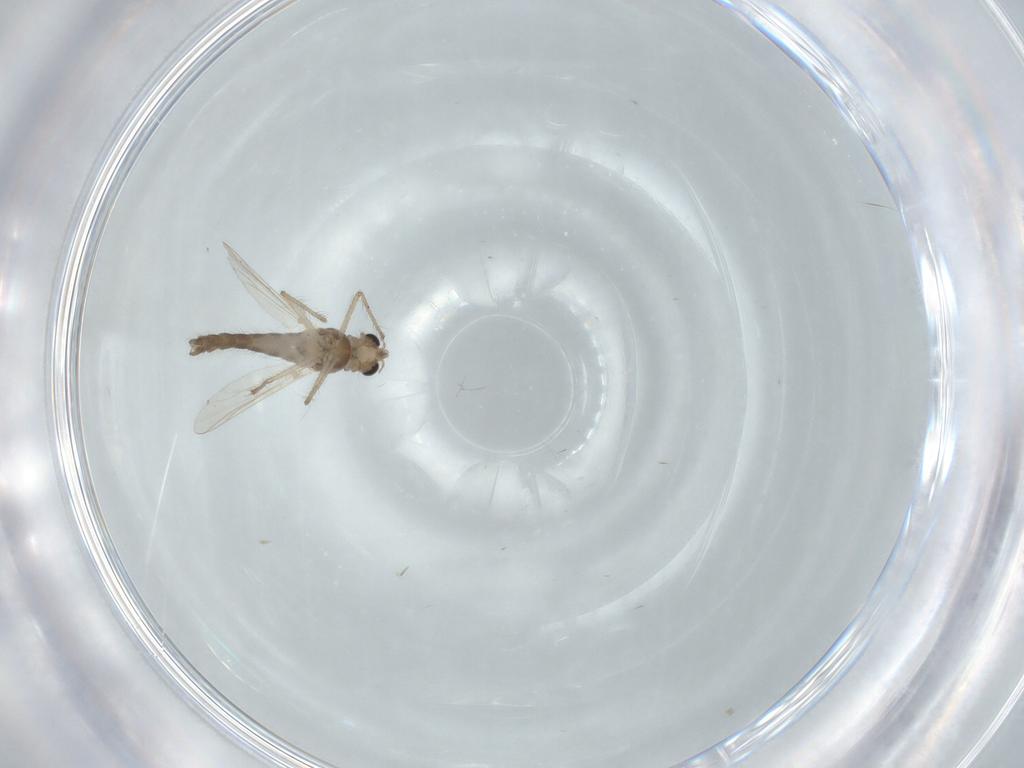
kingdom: Animalia
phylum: Arthropoda
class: Insecta
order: Diptera
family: Chironomidae
